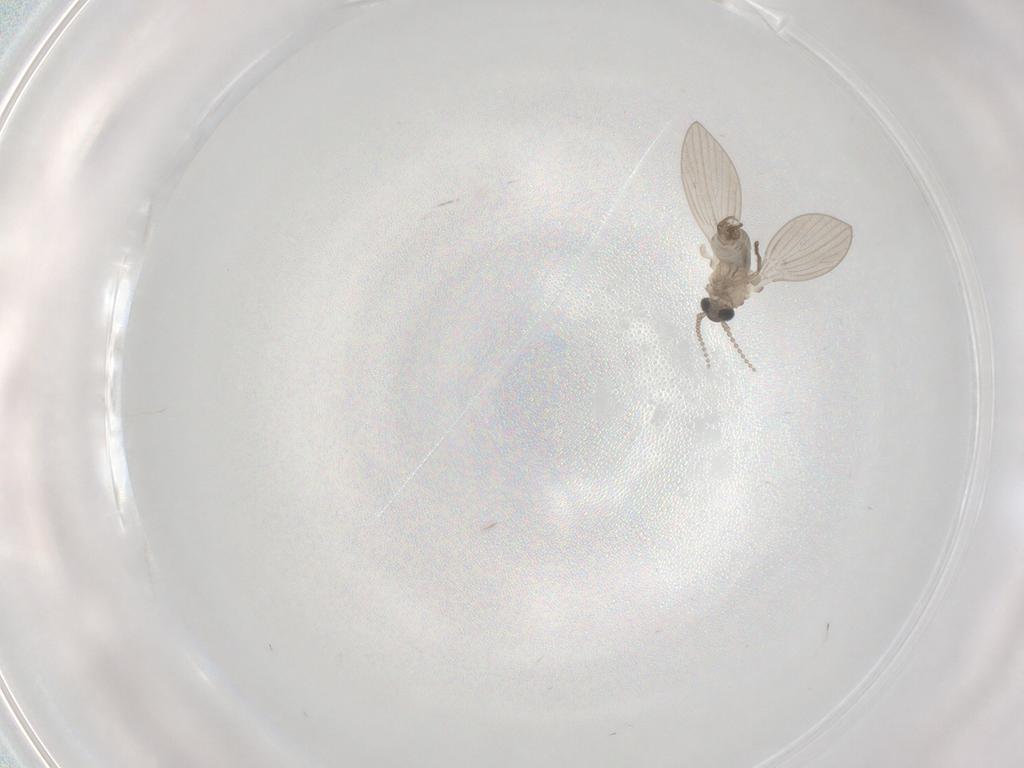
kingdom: Animalia
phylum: Arthropoda
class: Insecta
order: Diptera
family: Psychodidae
